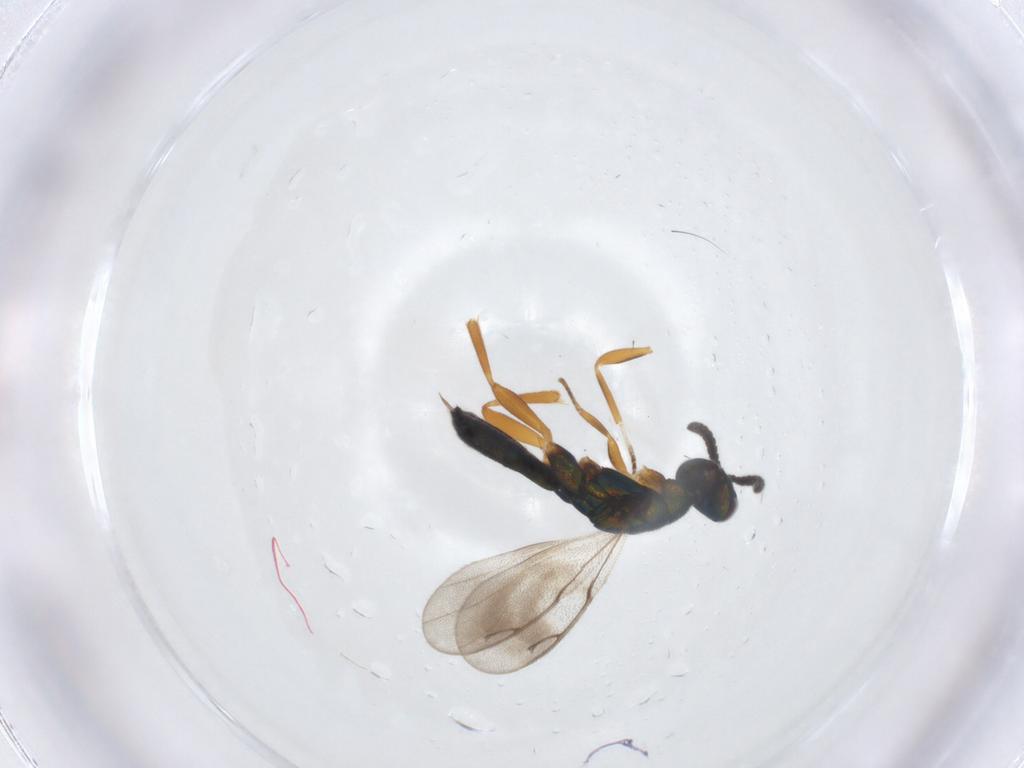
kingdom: Animalia
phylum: Arthropoda
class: Insecta
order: Hymenoptera
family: Cleonyminae
